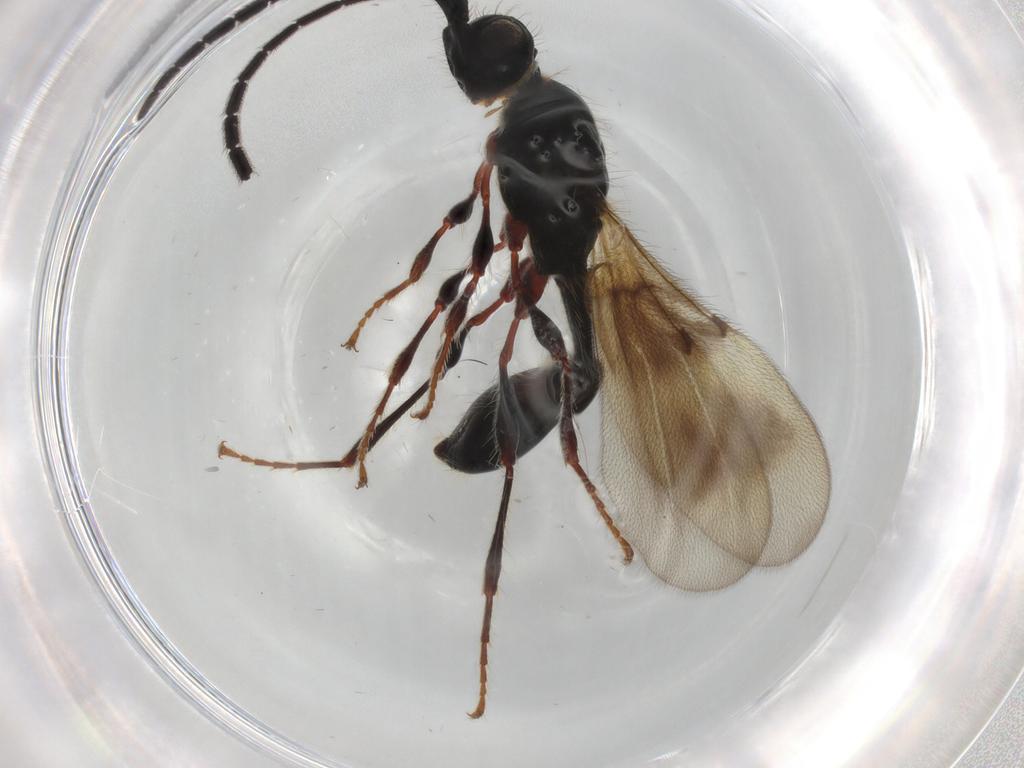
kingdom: Animalia
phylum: Arthropoda
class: Insecta
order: Hymenoptera
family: Diapriidae
